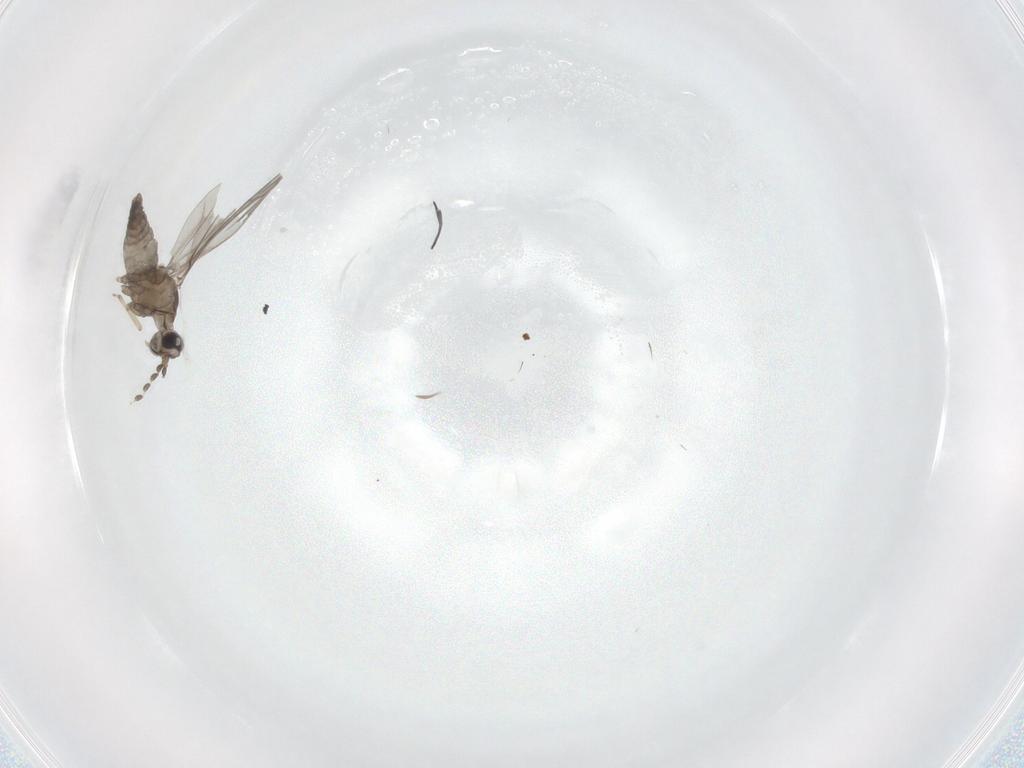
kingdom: Animalia
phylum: Arthropoda
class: Insecta
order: Diptera
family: Cecidomyiidae
